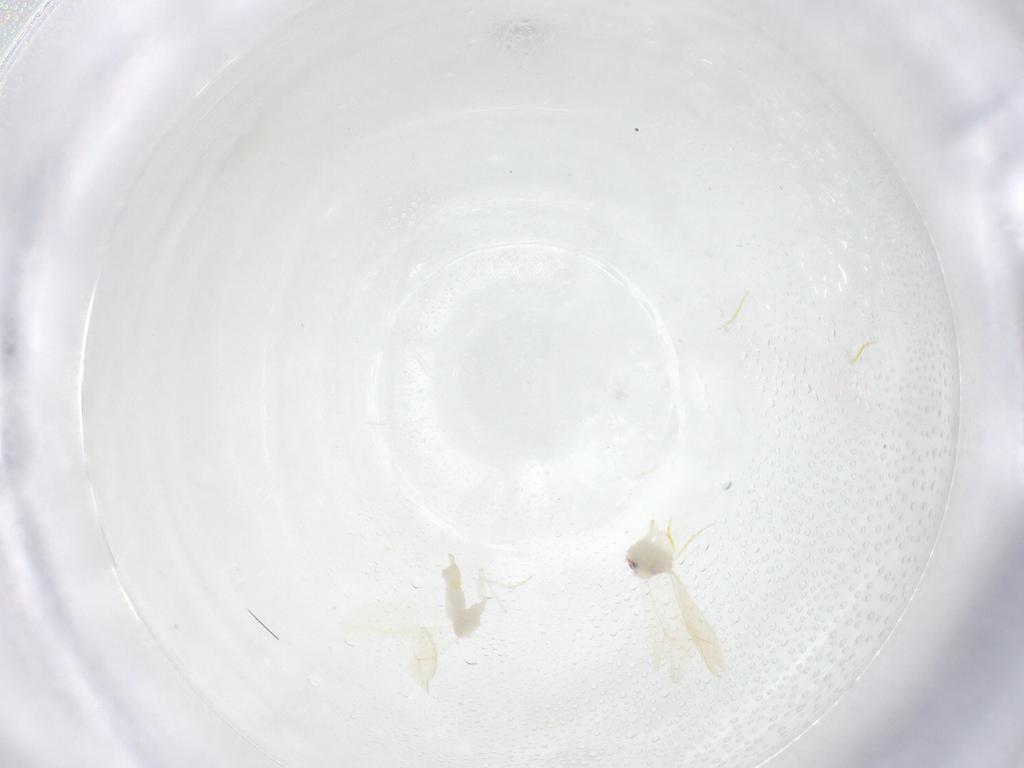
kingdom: Animalia
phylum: Arthropoda
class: Insecta
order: Hemiptera
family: Aleyrodidae
